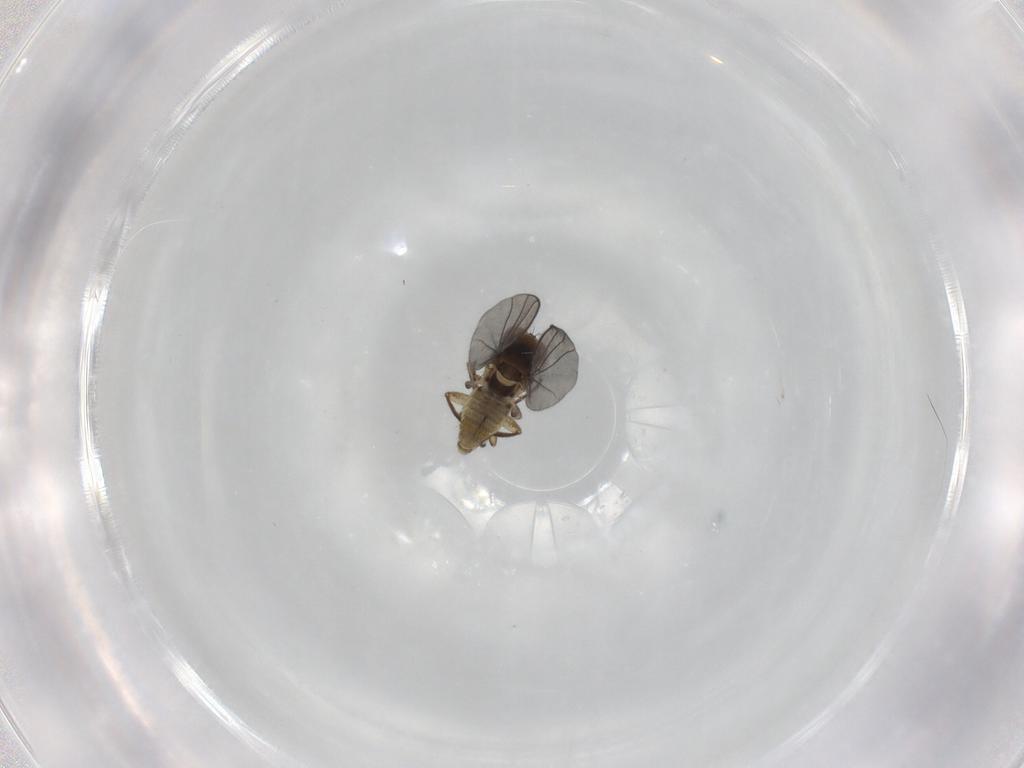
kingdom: Animalia
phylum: Arthropoda
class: Insecta
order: Diptera
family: Agromyzidae
